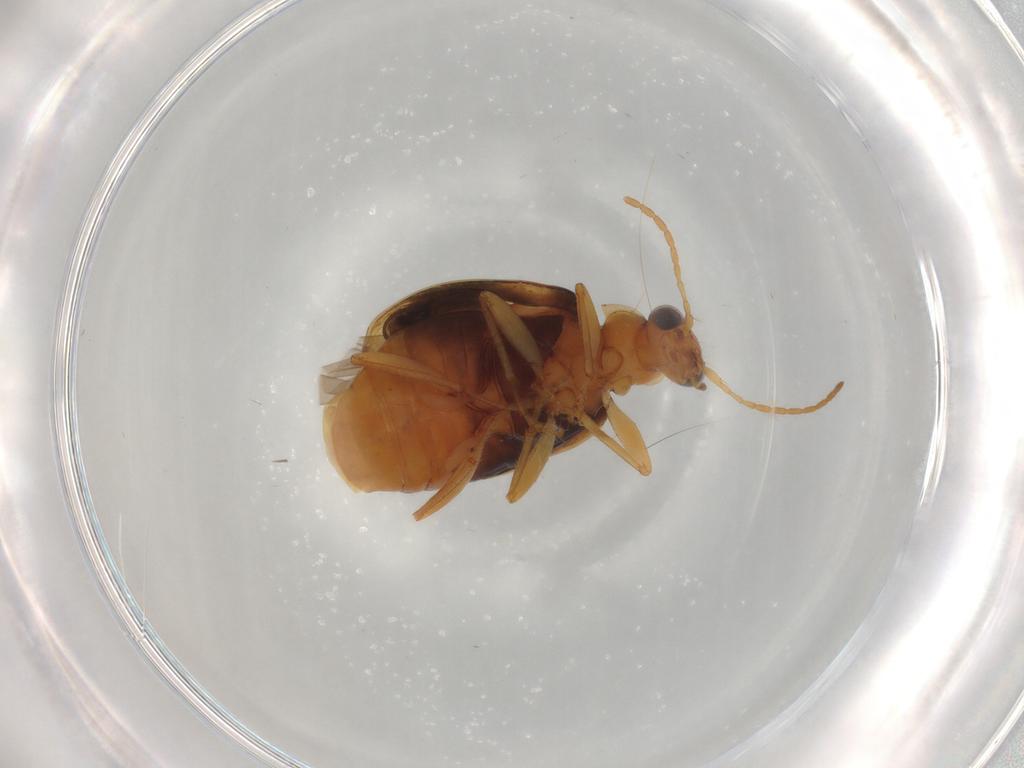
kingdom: Animalia
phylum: Arthropoda
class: Insecta
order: Coleoptera
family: Carabidae
